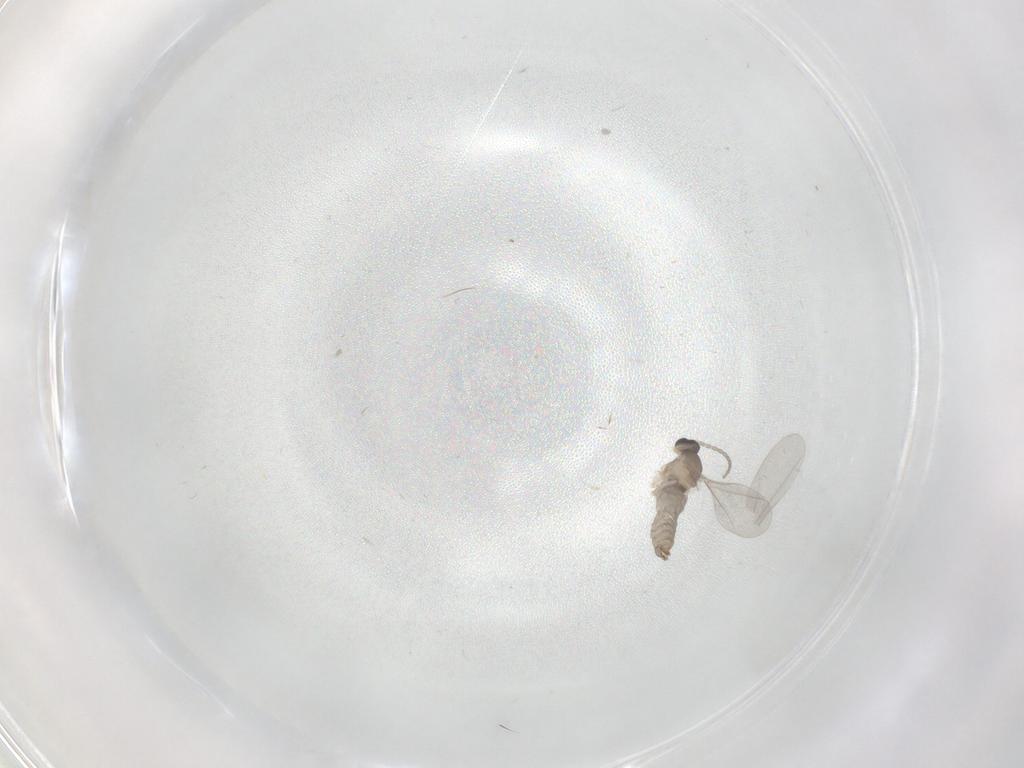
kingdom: Animalia
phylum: Arthropoda
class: Insecta
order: Diptera
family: Cecidomyiidae
